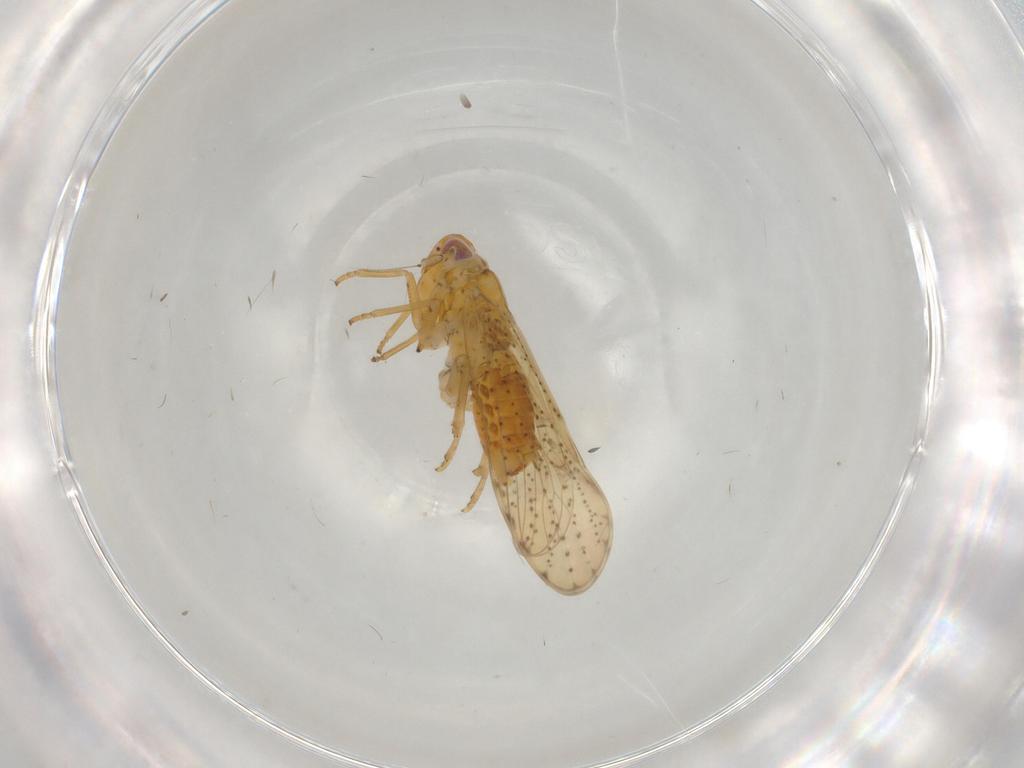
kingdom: Animalia
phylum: Arthropoda
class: Insecta
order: Hemiptera
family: Delphacidae
